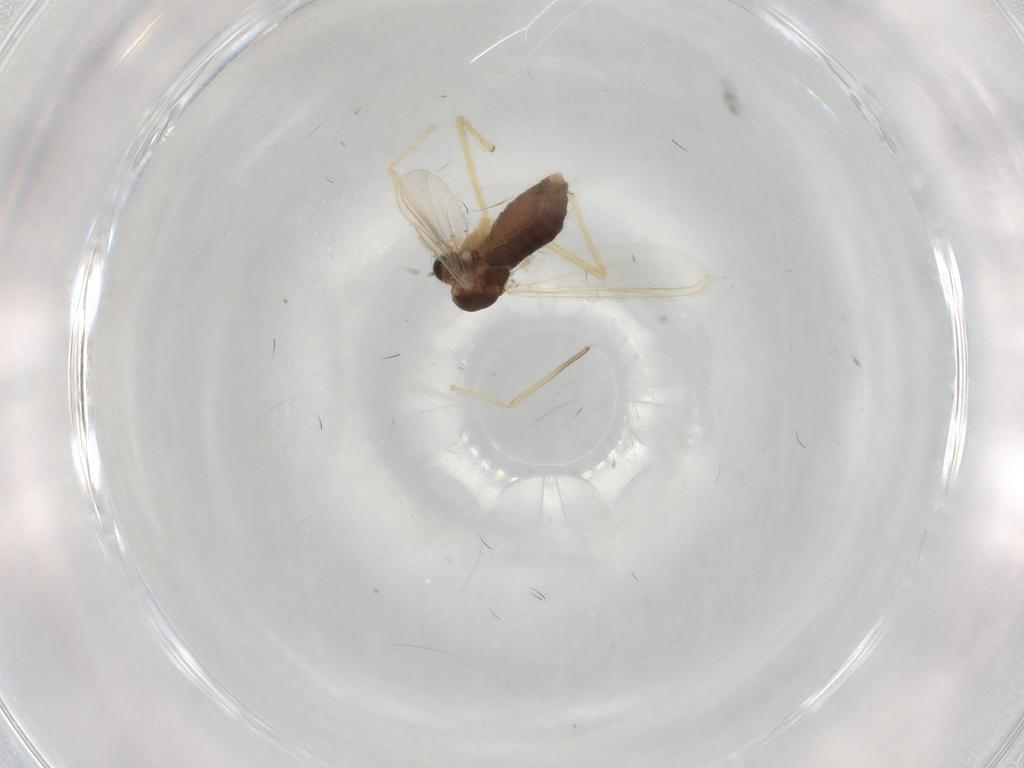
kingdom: Animalia
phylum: Arthropoda
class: Insecta
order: Diptera
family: Chironomidae
